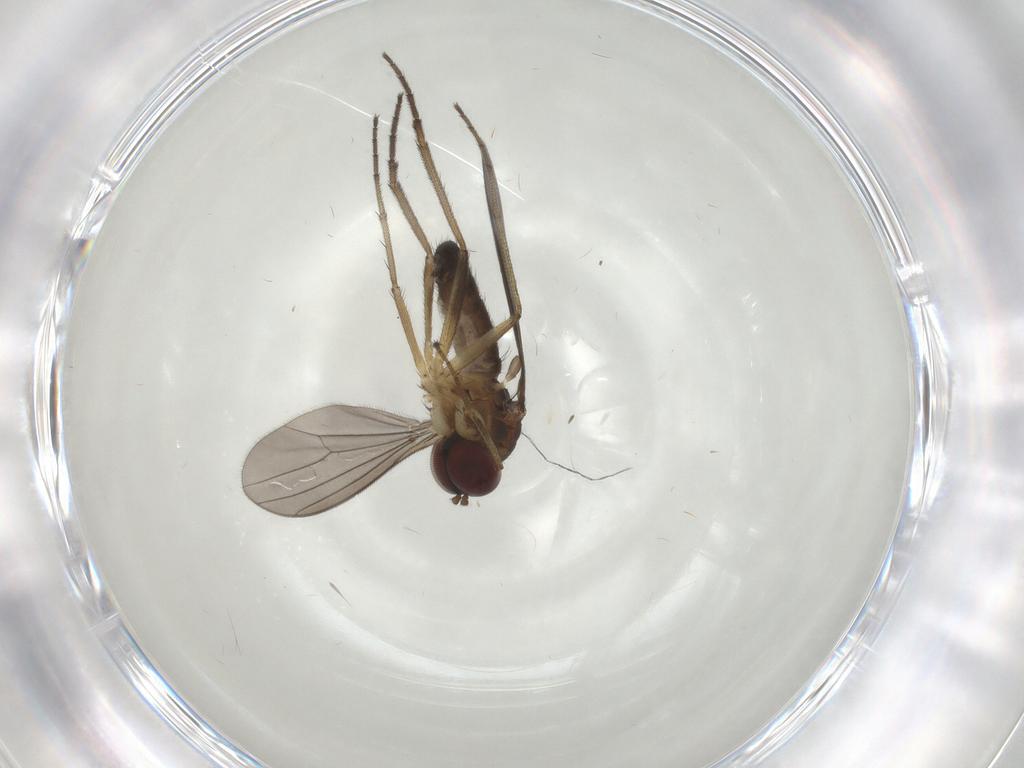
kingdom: Animalia
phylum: Arthropoda
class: Insecta
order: Diptera
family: Dolichopodidae
